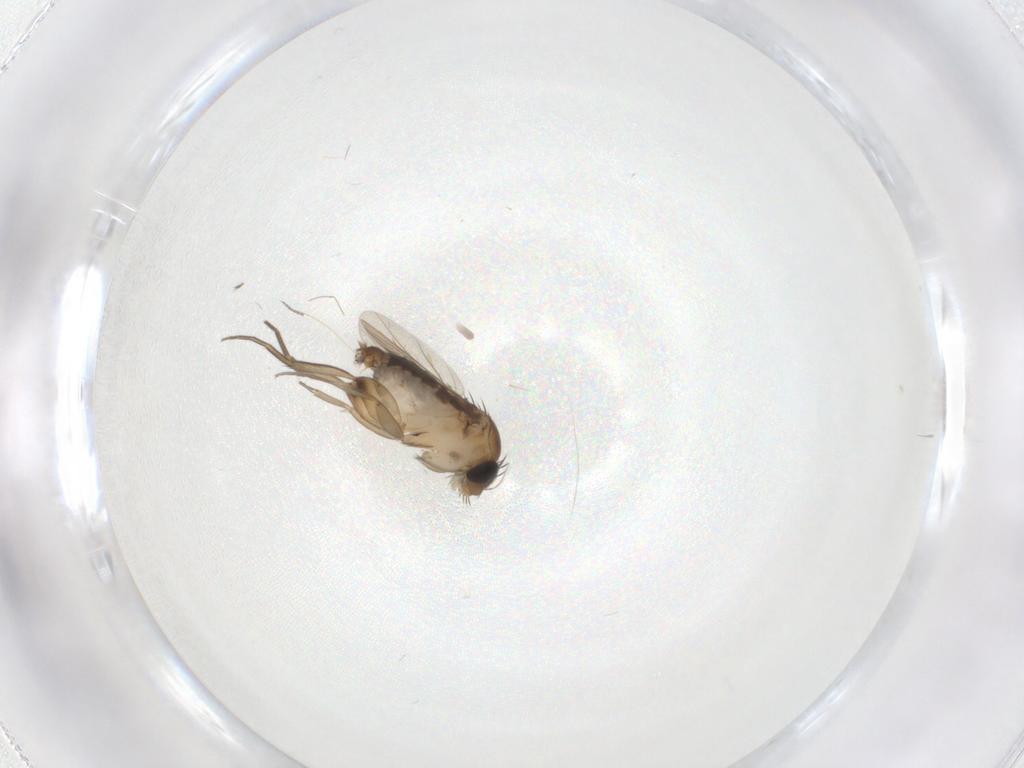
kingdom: Animalia
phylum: Arthropoda
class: Insecta
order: Diptera
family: Phoridae
